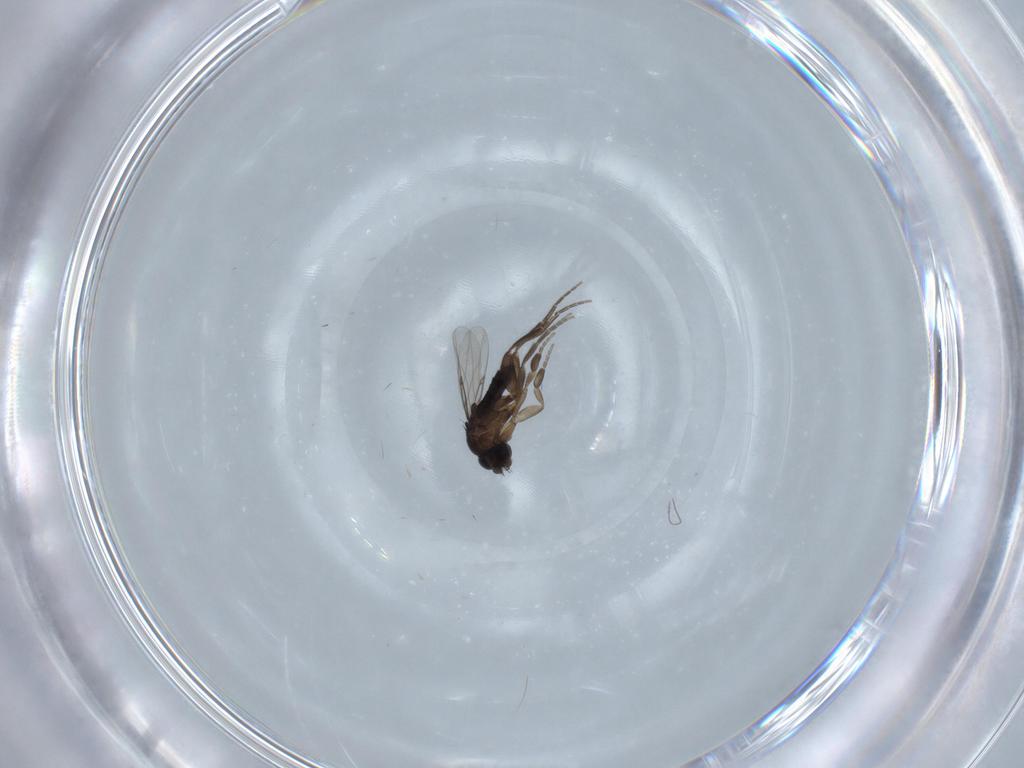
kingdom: Animalia
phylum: Arthropoda
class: Insecta
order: Diptera
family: Phoridae
